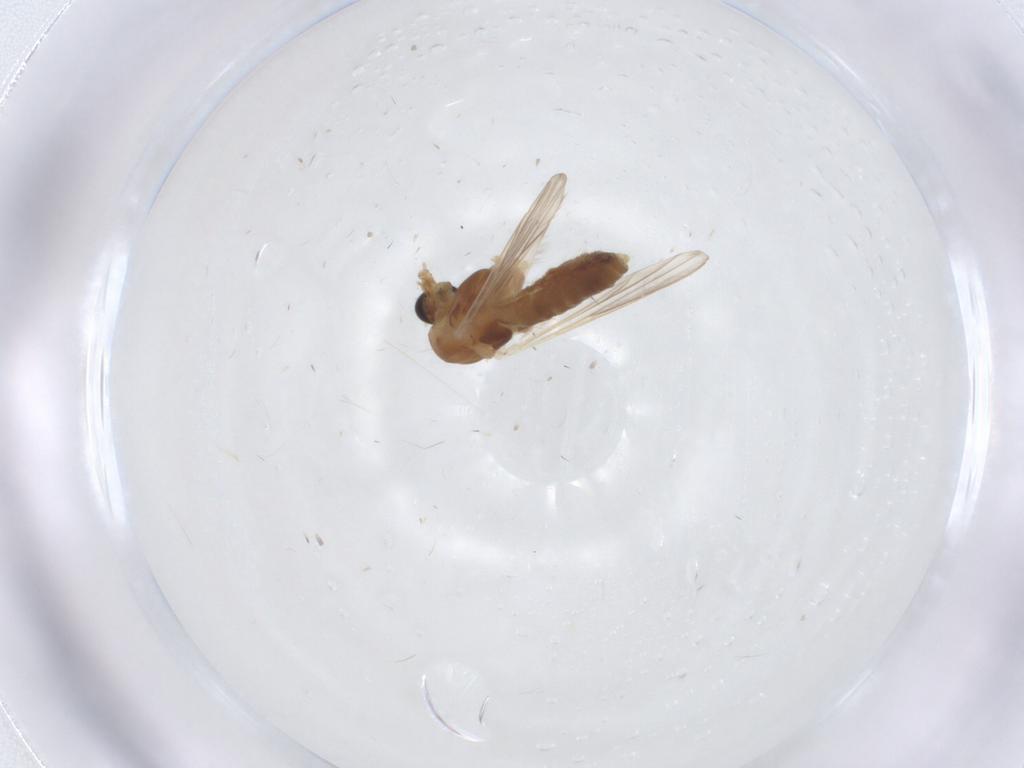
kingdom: Animalia
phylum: Arthropoda
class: Insecta
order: Diptera
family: Chironomidae
